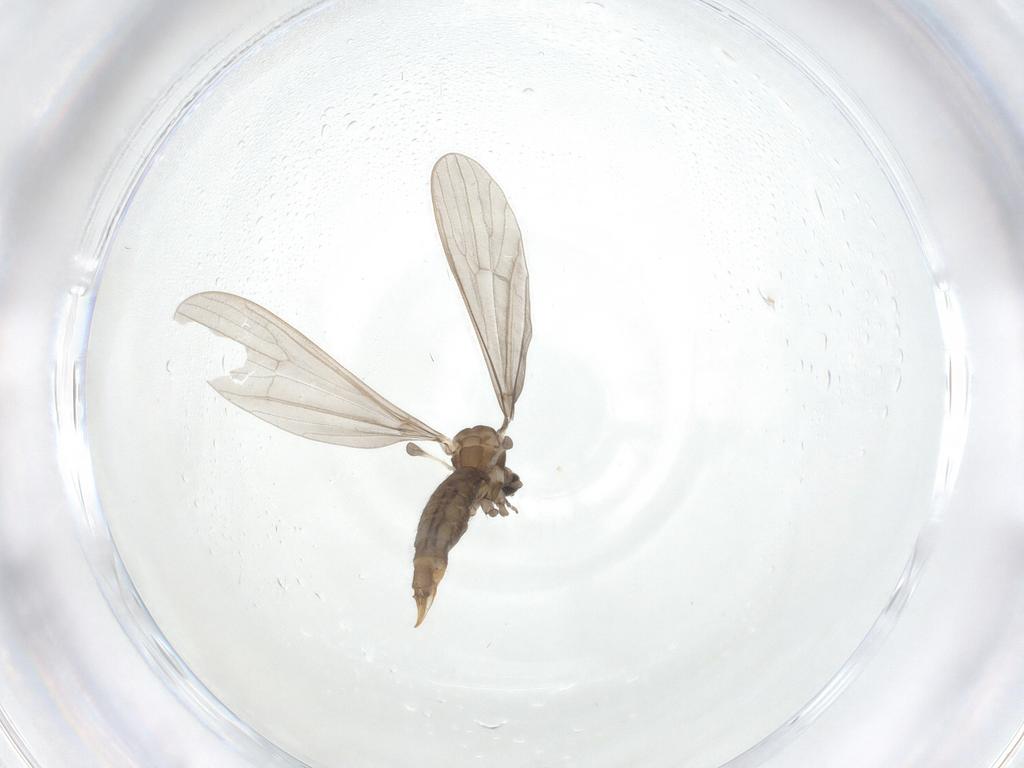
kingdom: Animalia
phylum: Arthropoda
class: Insecta
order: Diptera
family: Cecidomyiidae
